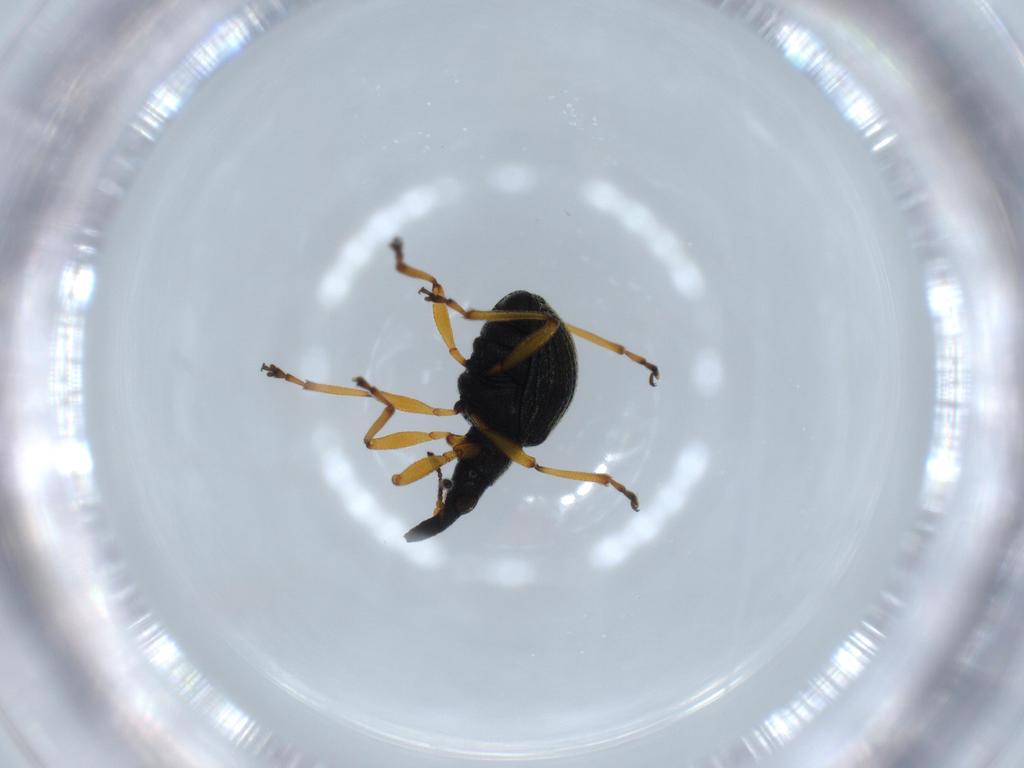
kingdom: Animalia
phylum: Arthropoda
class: Insecta
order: Coleoptera
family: Brentidae
